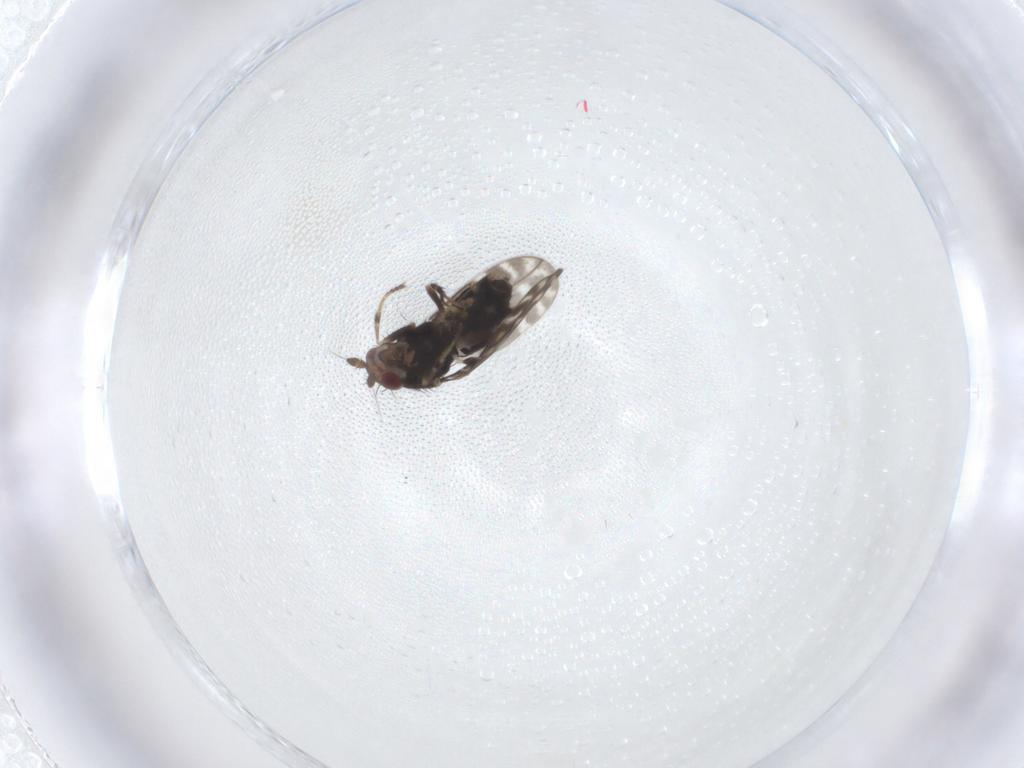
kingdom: Animalia
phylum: Arthropoda
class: Insecta
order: Diptera
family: Sphaeroceridae
